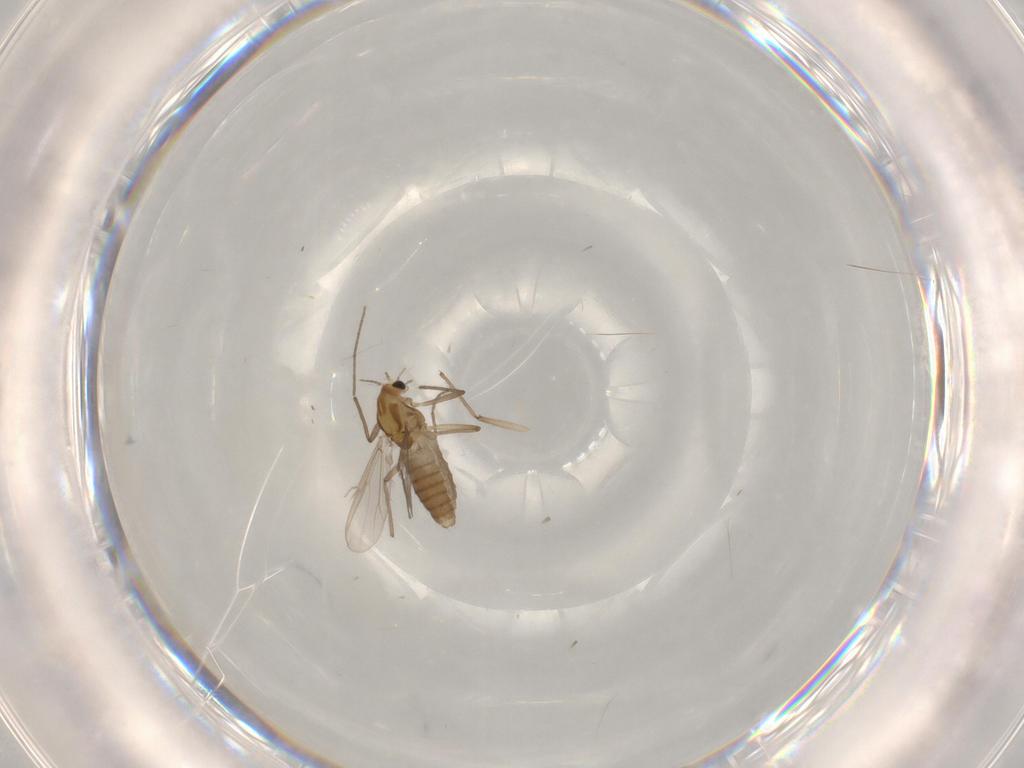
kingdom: Animalia
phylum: Arthropoda
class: Insecta
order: Diptera
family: Chironomidae
